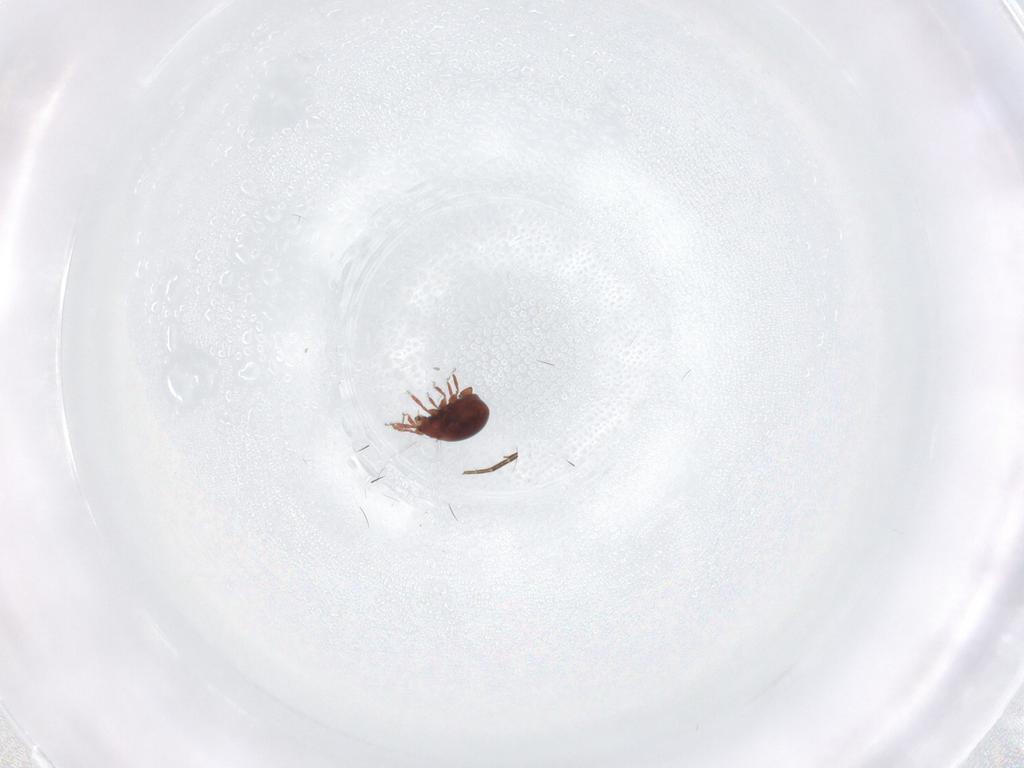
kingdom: Animalia
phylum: Arthropoda
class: Arachnida
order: Sarcoptiformes
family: Humerobatidae
